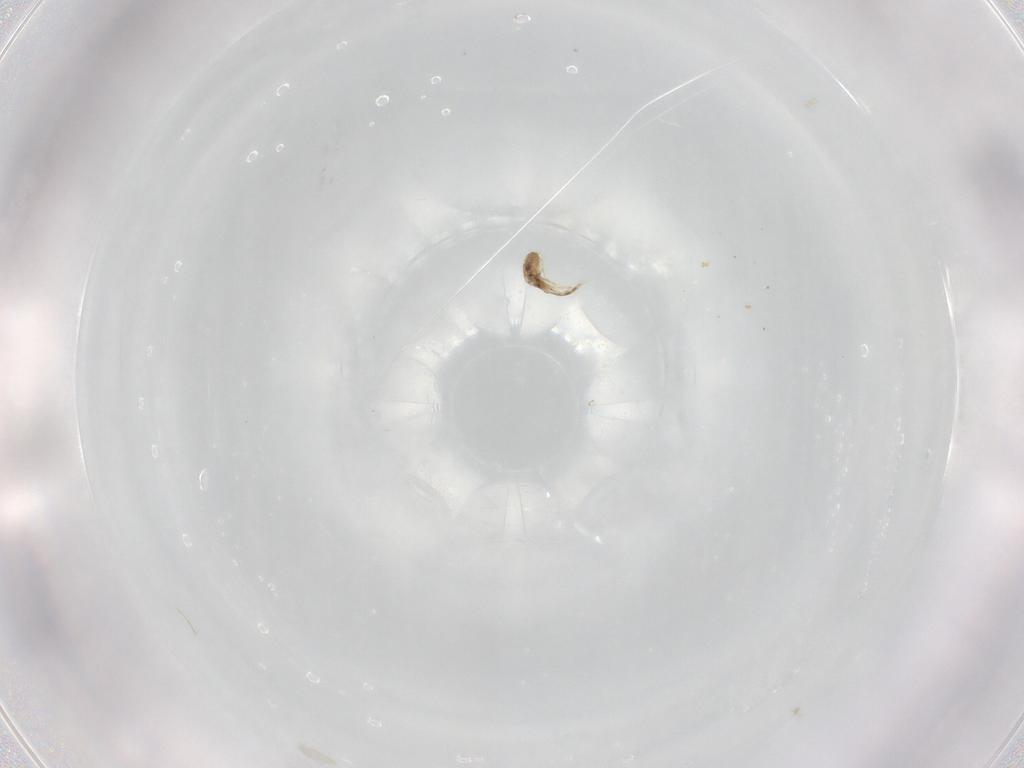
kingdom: Animalia
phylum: Arthropoda
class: Arachnida
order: Trombidiformes
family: Rhagidiidae
